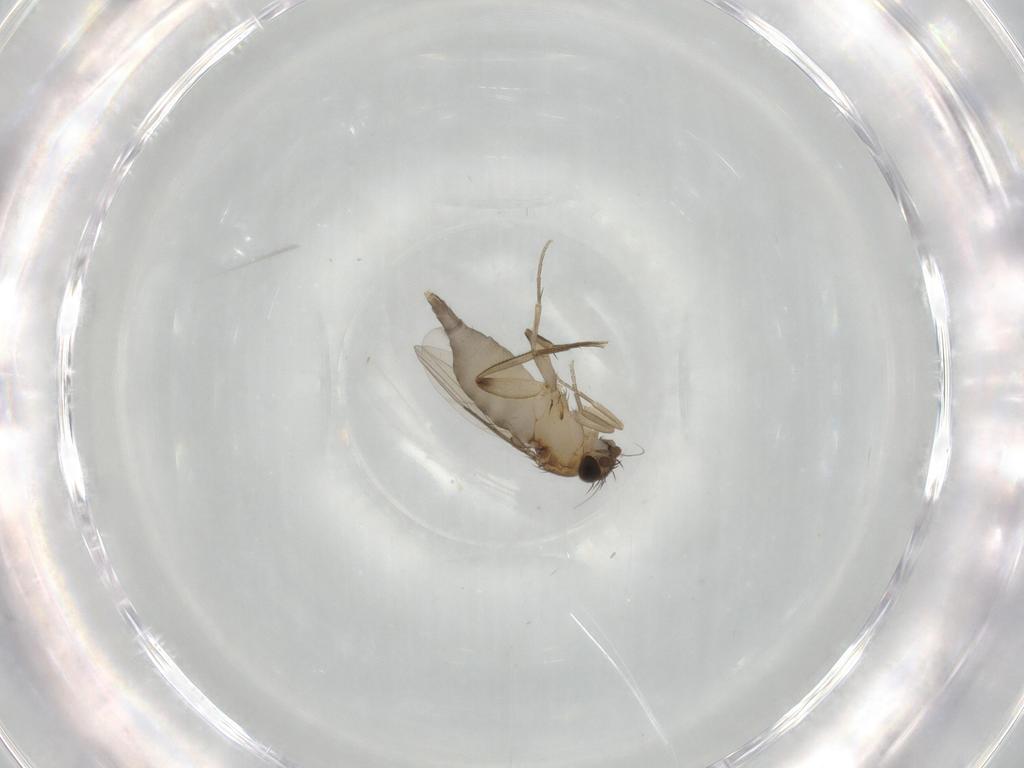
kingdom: Animalia
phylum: Arthropoda
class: Insecta
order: Diptera
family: Phoridae
